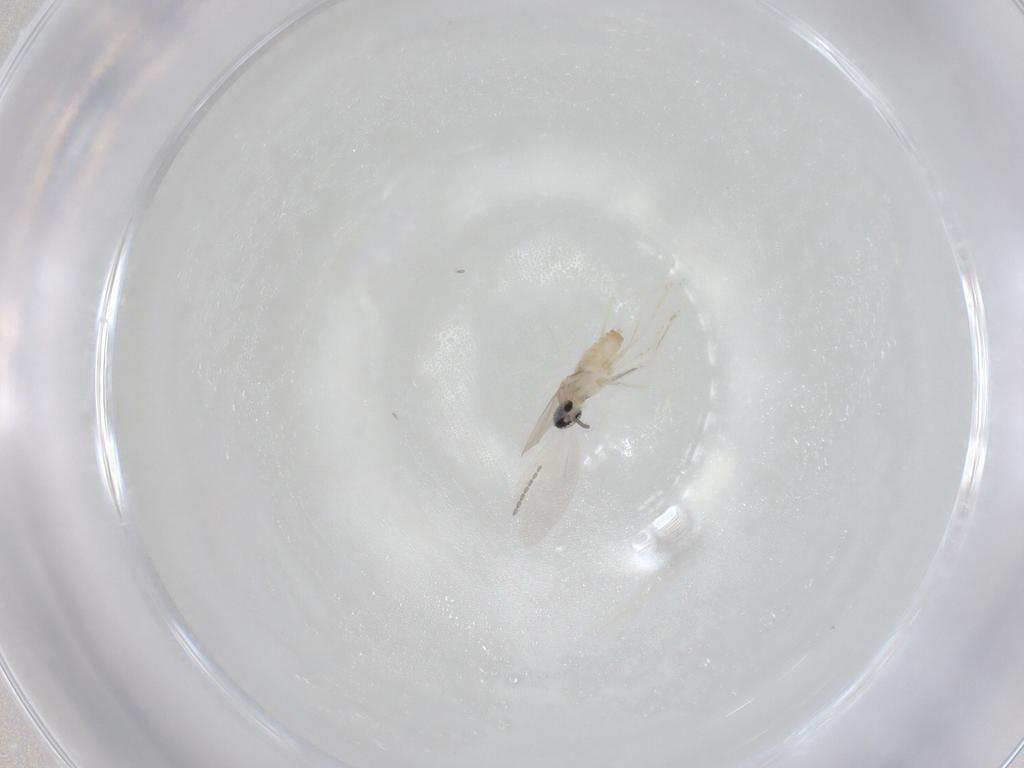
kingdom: Animalia
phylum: Arthropoda
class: Insecta
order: Diptera
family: Cecidomyiidae
